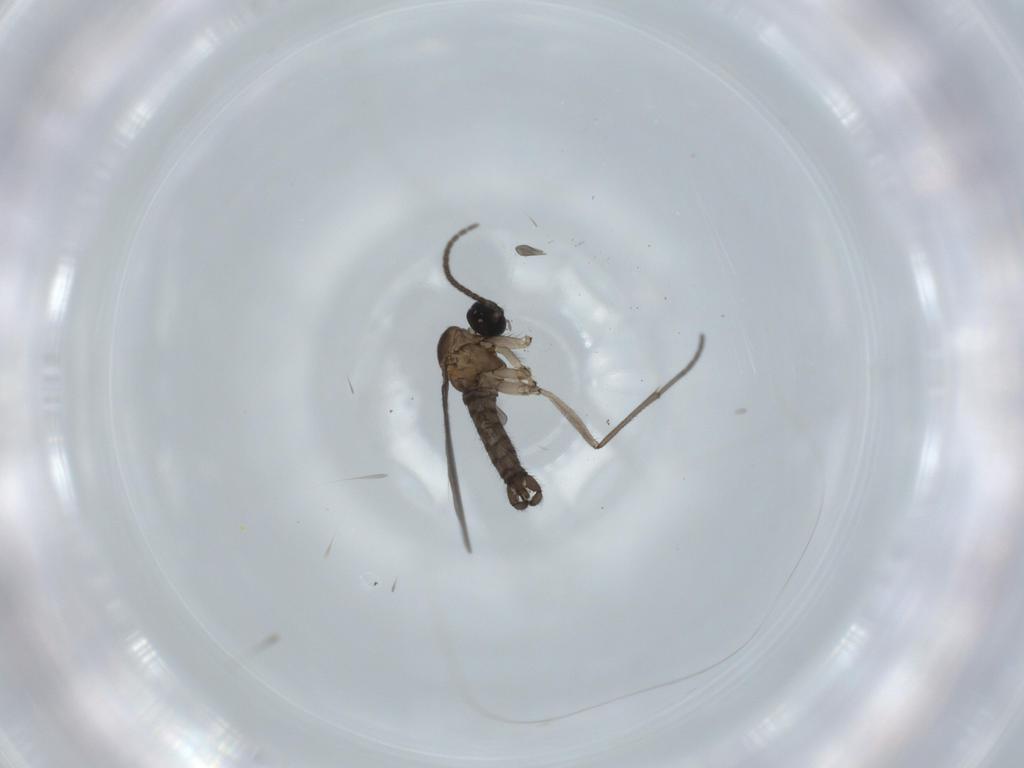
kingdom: Animalia
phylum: Arthropoda
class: Insecta
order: Diptera
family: Sciaridae
